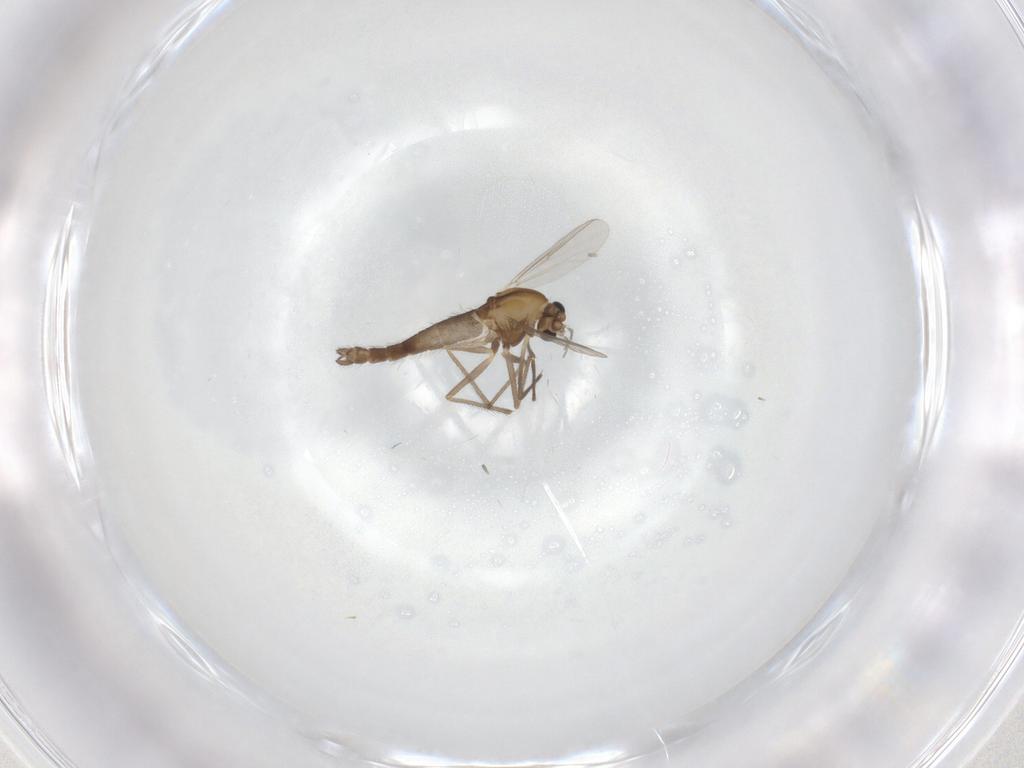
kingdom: Animalia
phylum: Arthropoda
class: Insecta
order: Diptera
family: Chironomidae
